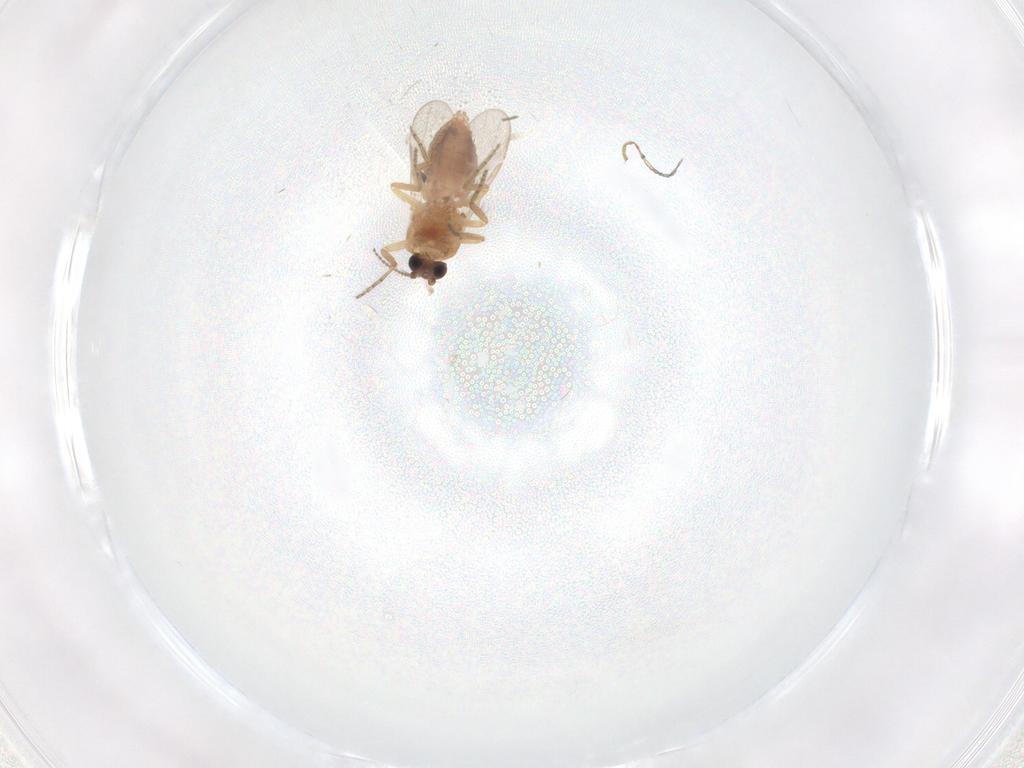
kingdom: Animalia
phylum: Arthropoda
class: Insecta
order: Diptera
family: Ceratopogonidae
